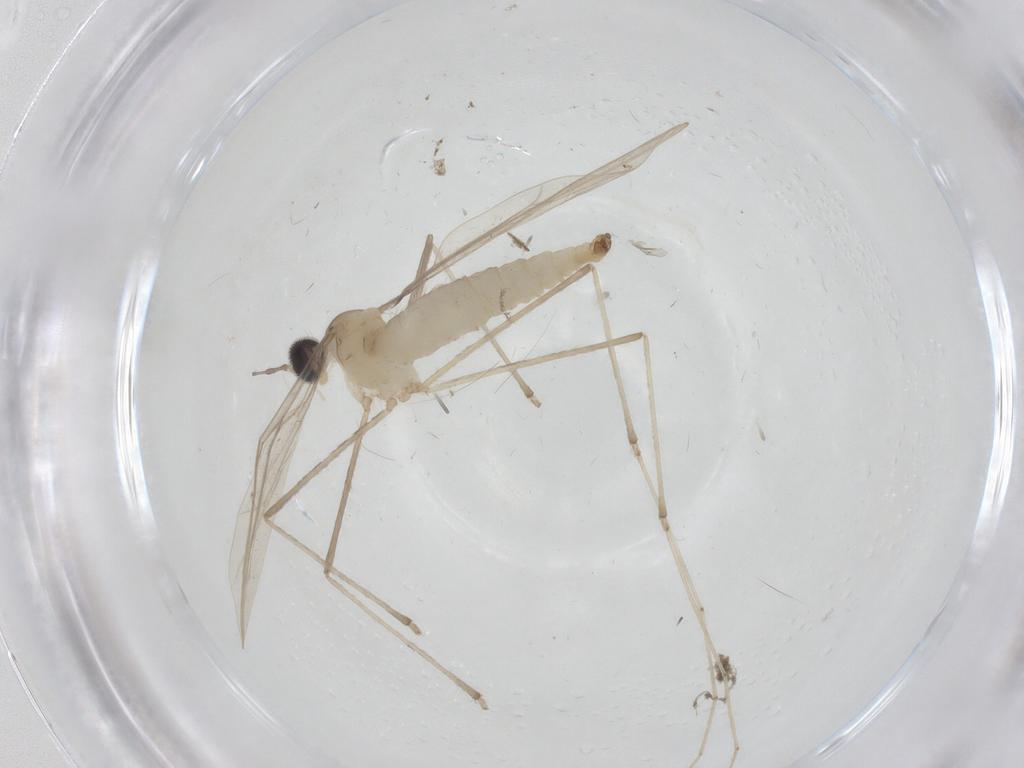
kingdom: Animalia
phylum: Arthropoda
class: Insecta
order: Diptera
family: Cecidomyiidae
